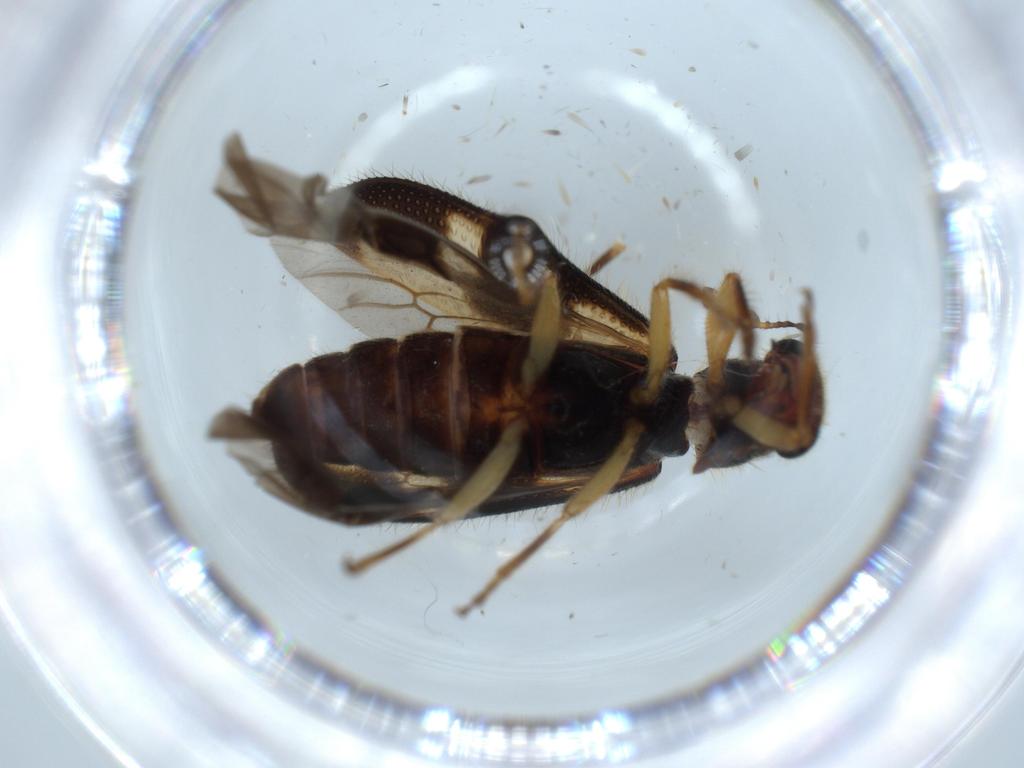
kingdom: Animalia
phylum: Arthropoda
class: Insecta
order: Coleoptera
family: Cleridae
